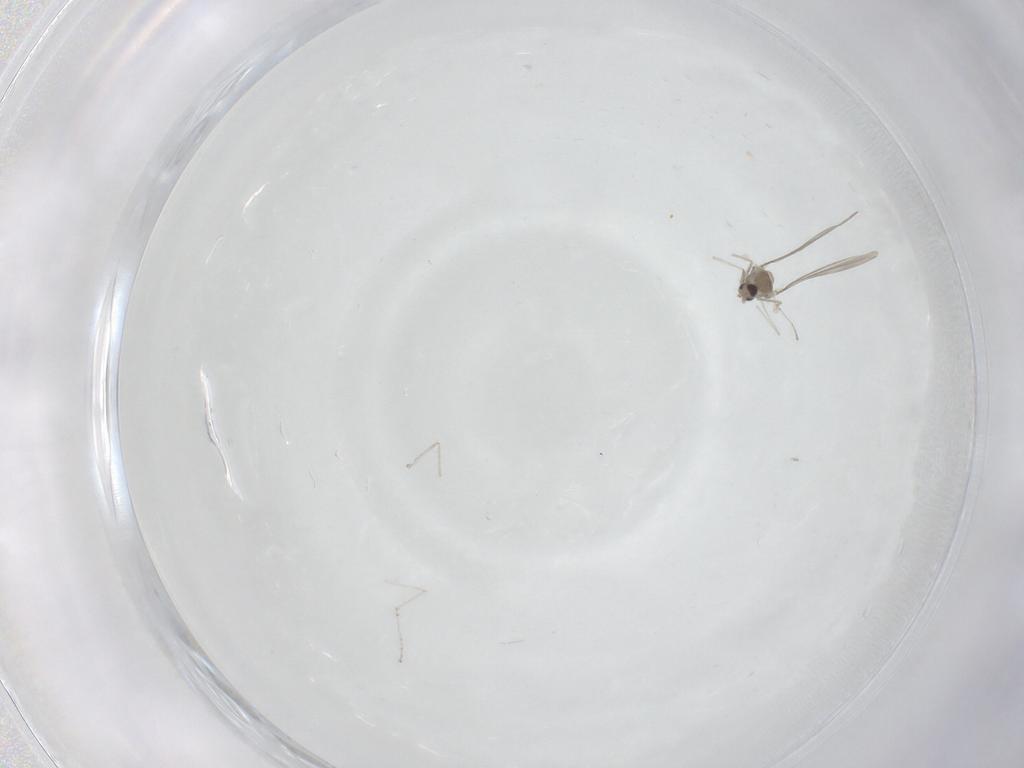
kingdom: Animalia
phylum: Arthropoda
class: Insecta
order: Diptera
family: Cecidomyiidae
